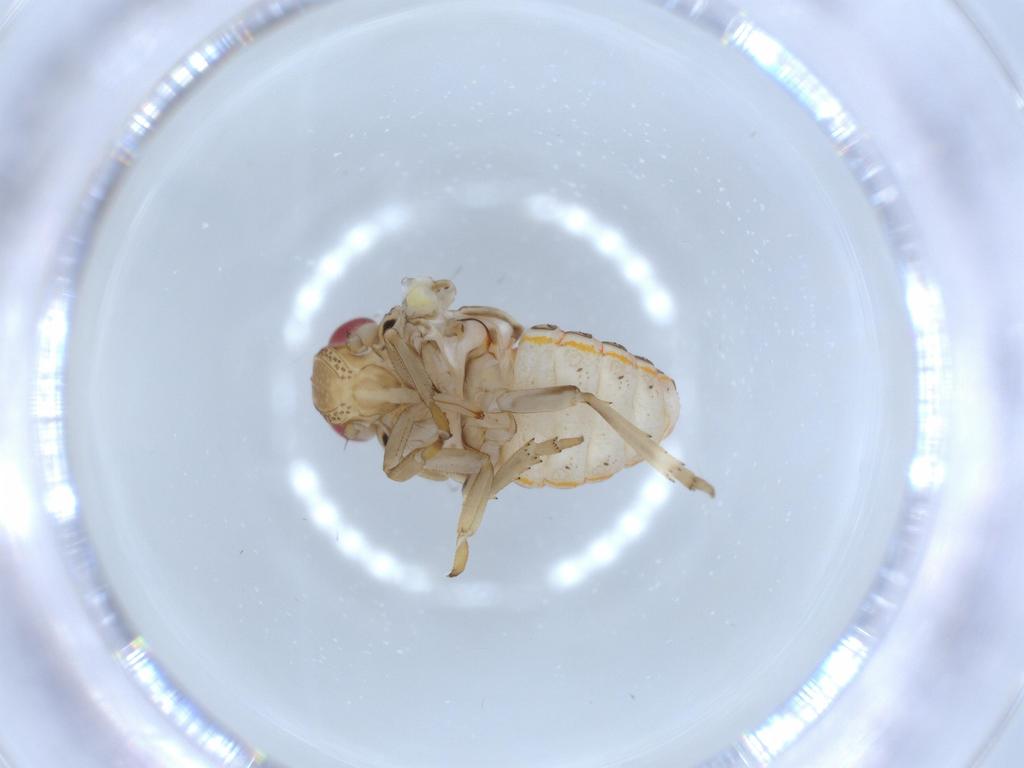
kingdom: Animalia
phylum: Arthropoda
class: Insecta
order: Hemiptera
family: Issidae
